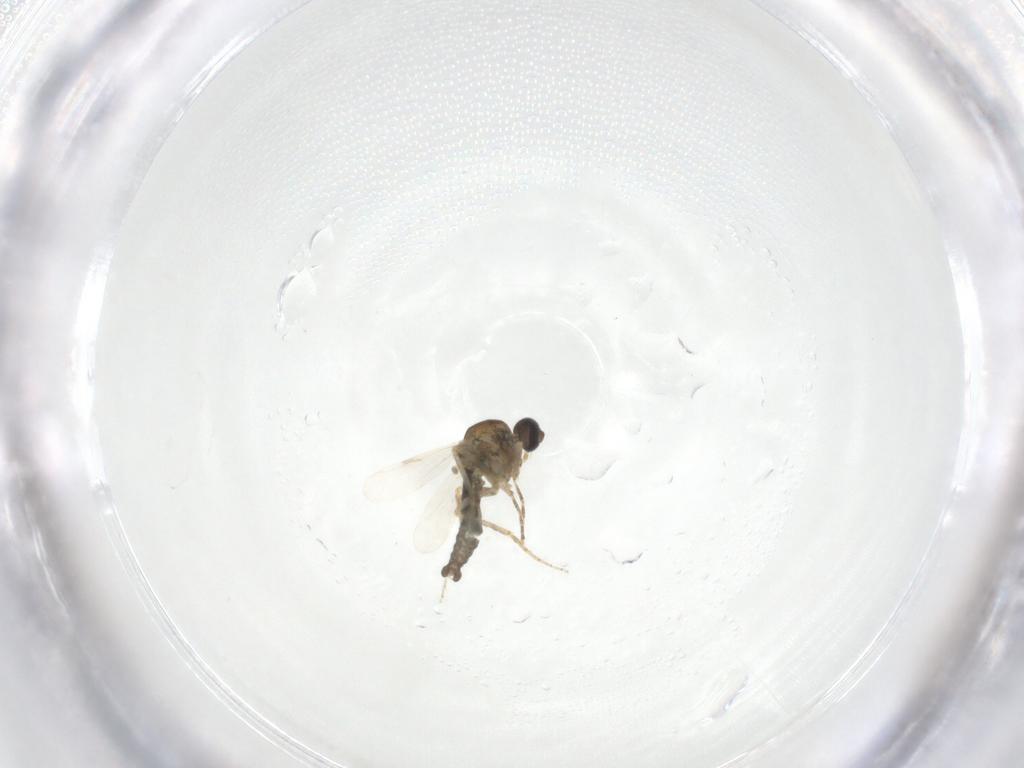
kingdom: Animalia
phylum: Arthropoda
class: Insecta
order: Diptera
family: Ceratopogonidae
